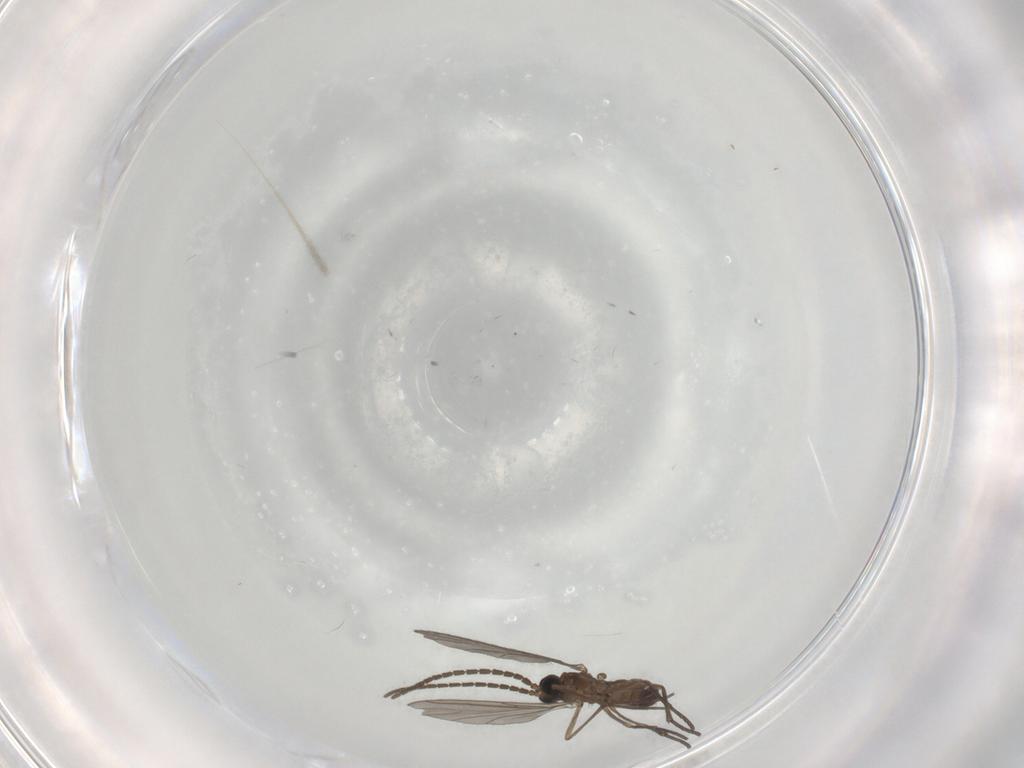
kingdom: Animalia
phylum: Arthropoda
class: Insecta
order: Diptera
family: Sciaridae
